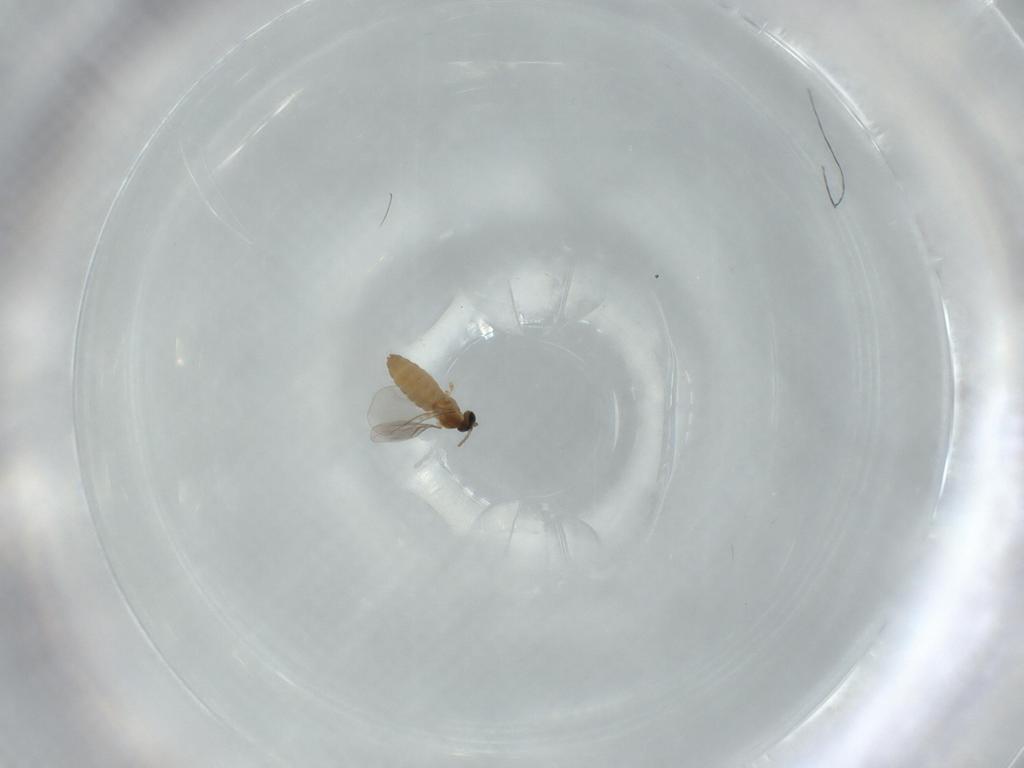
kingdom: Animalia
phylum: Arthropoda
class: Insecta
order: Diptera
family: Cecidomyiidae
